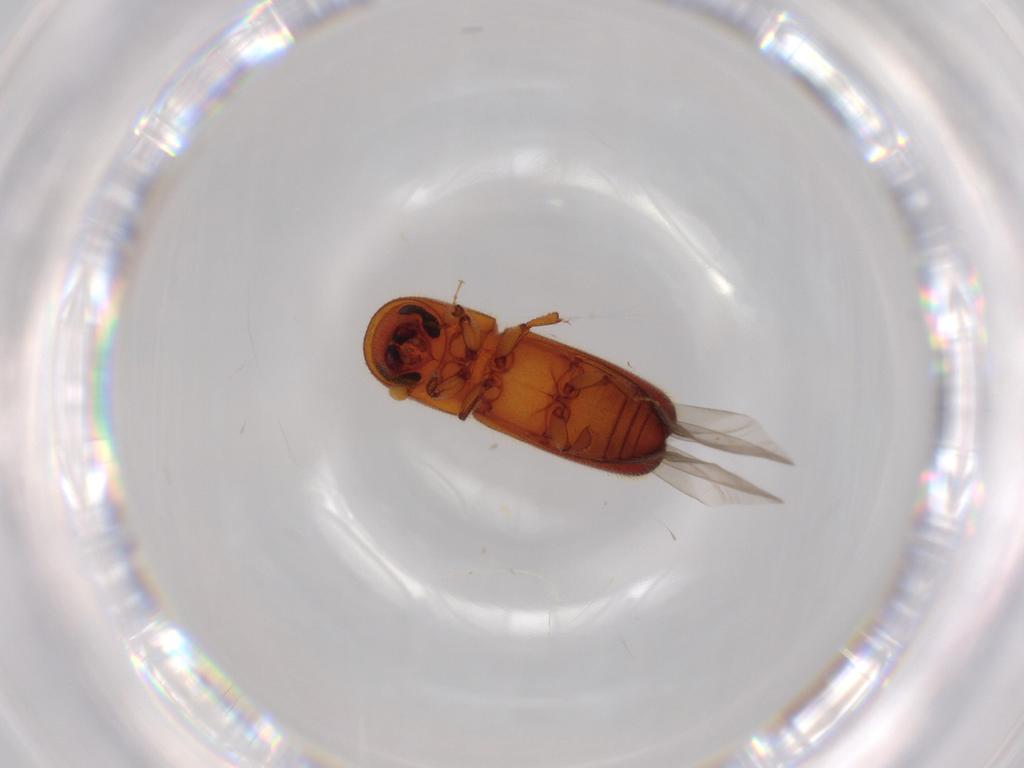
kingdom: Animalia
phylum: Arthropoda
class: Insecta
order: Coleoptera
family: Curculionidae
